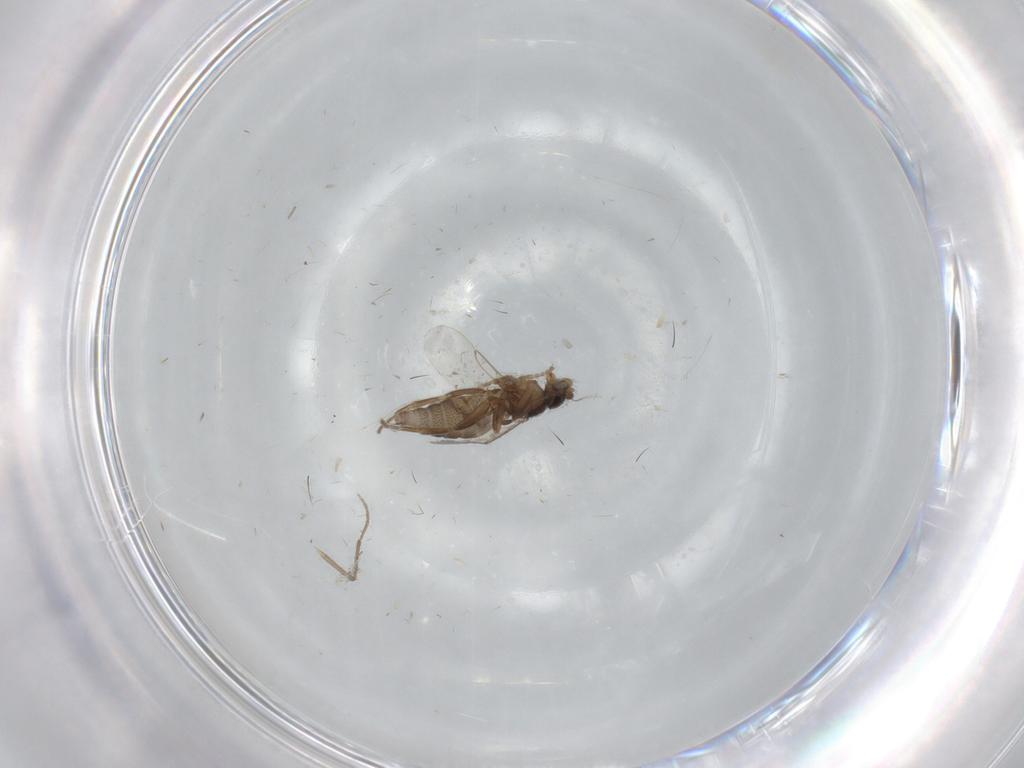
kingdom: Animalia
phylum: Arthropoda
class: Insecta
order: Diptera
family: Phoridae
